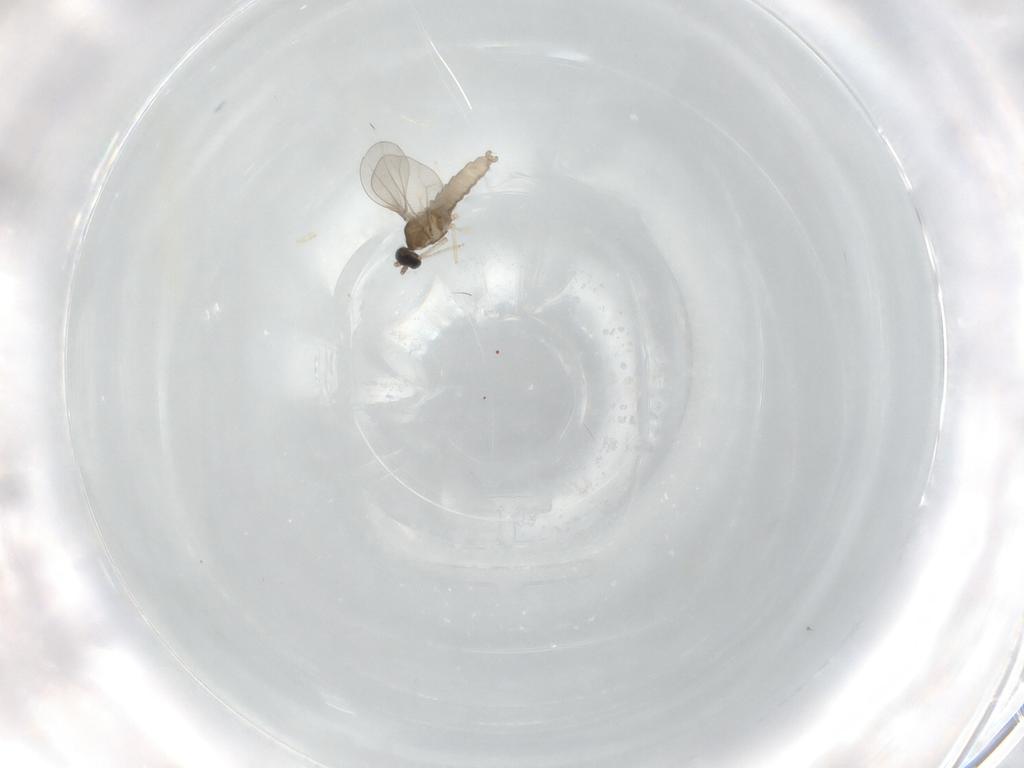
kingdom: Animalia
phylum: Arthropoda
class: Insecta
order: Diptera
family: Cecidomyiidae
